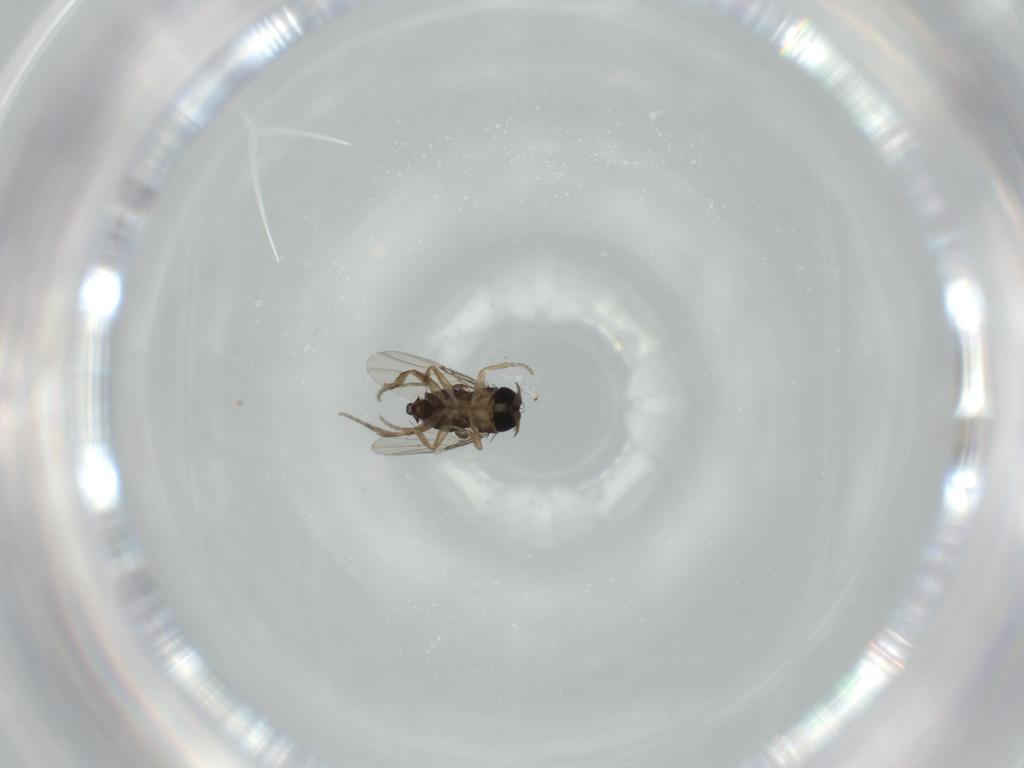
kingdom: Animalia
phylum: Arthropoda
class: Insecta
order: Diptera
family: Phoridae
